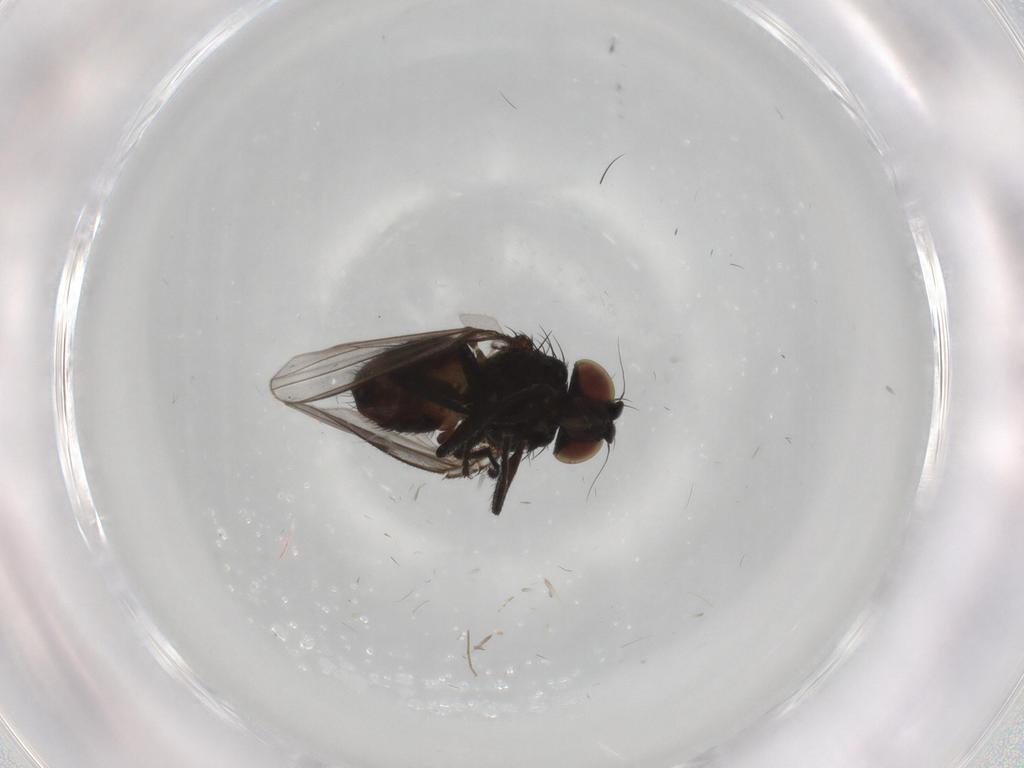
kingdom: Animalia
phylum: Arthropoda
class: Insecta
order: Diptera
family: Milichiidae
